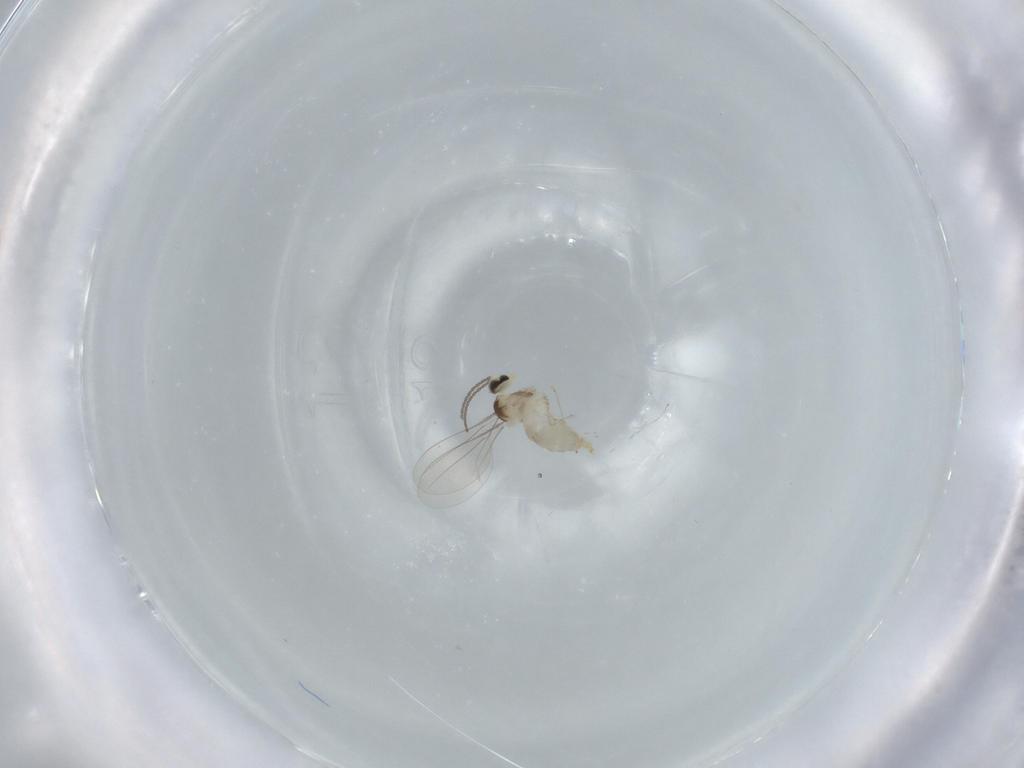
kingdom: Animalia
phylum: Arthropoda
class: Insecta
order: Diptera
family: Cecidomyiidae
